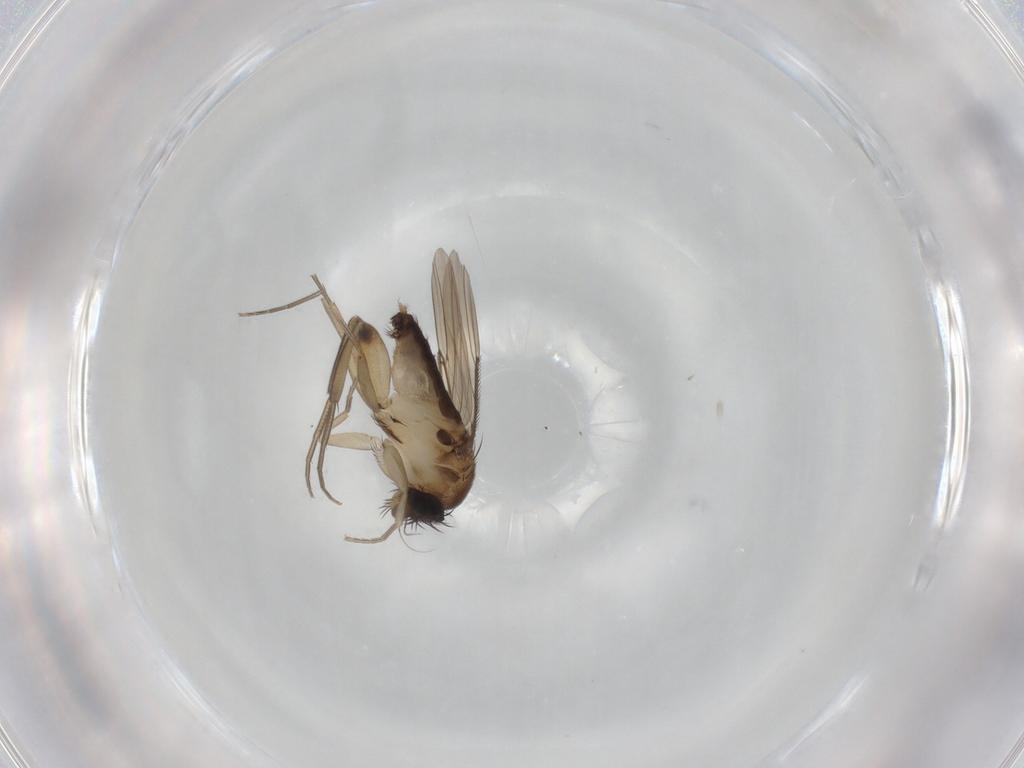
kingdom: Animalia
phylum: Arthropoda
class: Insecta
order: Diptera
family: Phoridae
